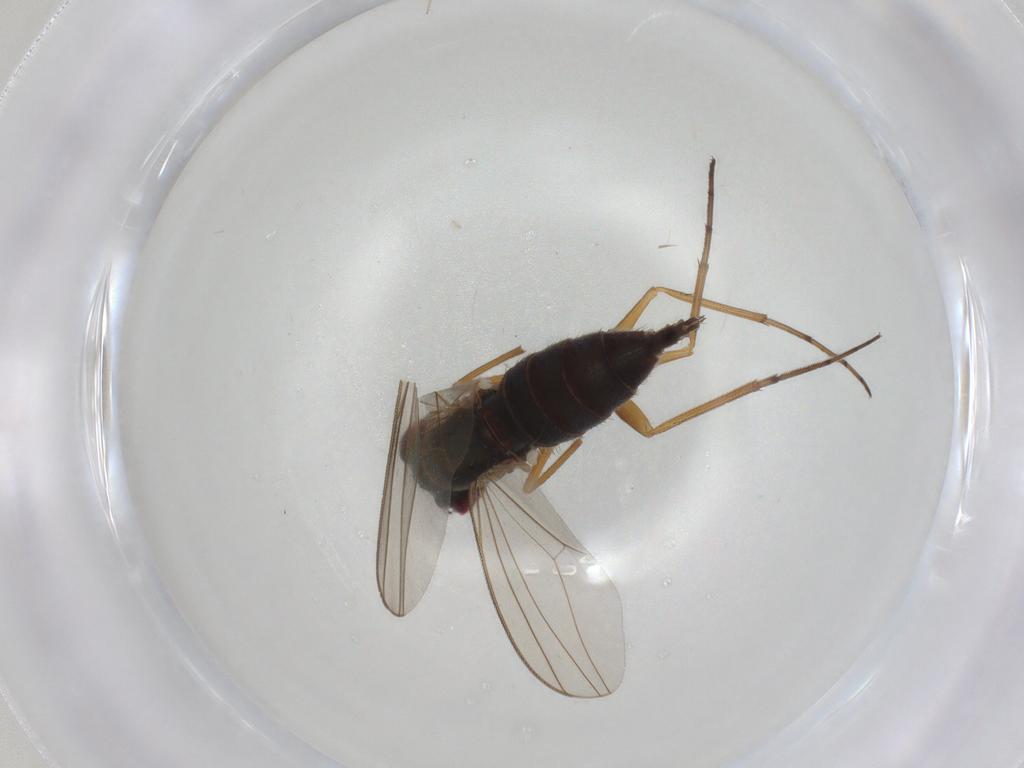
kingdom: Animalia
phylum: Arthropoda
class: Insecta
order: Diptera
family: Dolichopodidae
